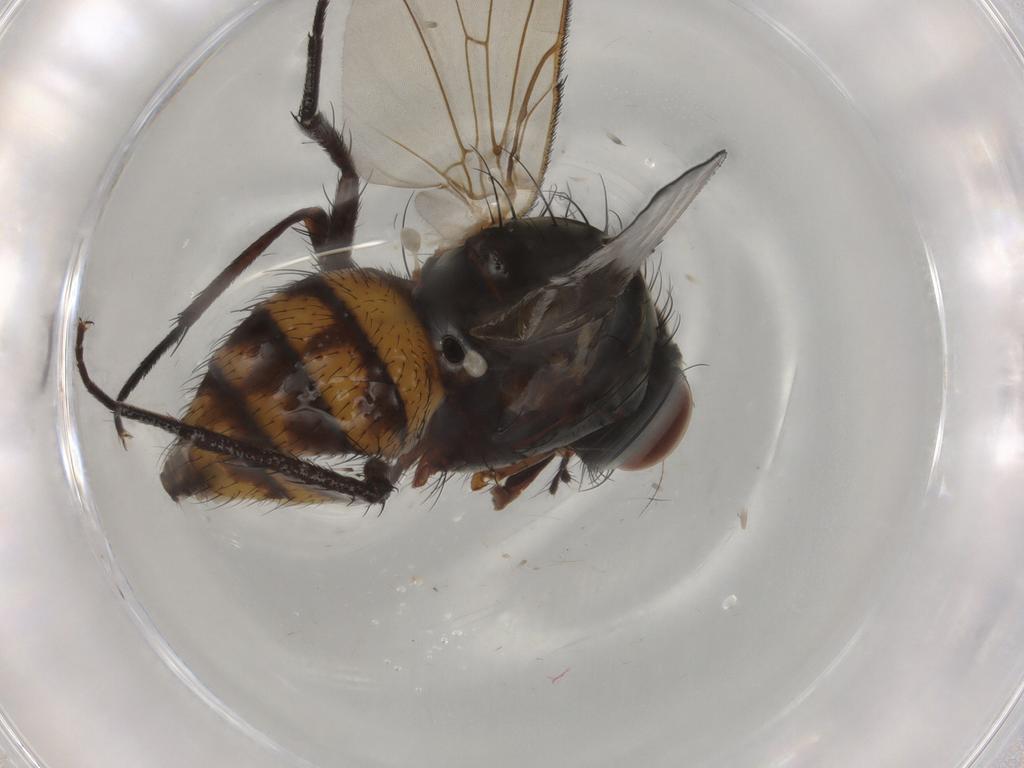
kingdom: Animalia
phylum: Arthropoda
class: Insecta
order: Diptera
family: Anthomyiidae
